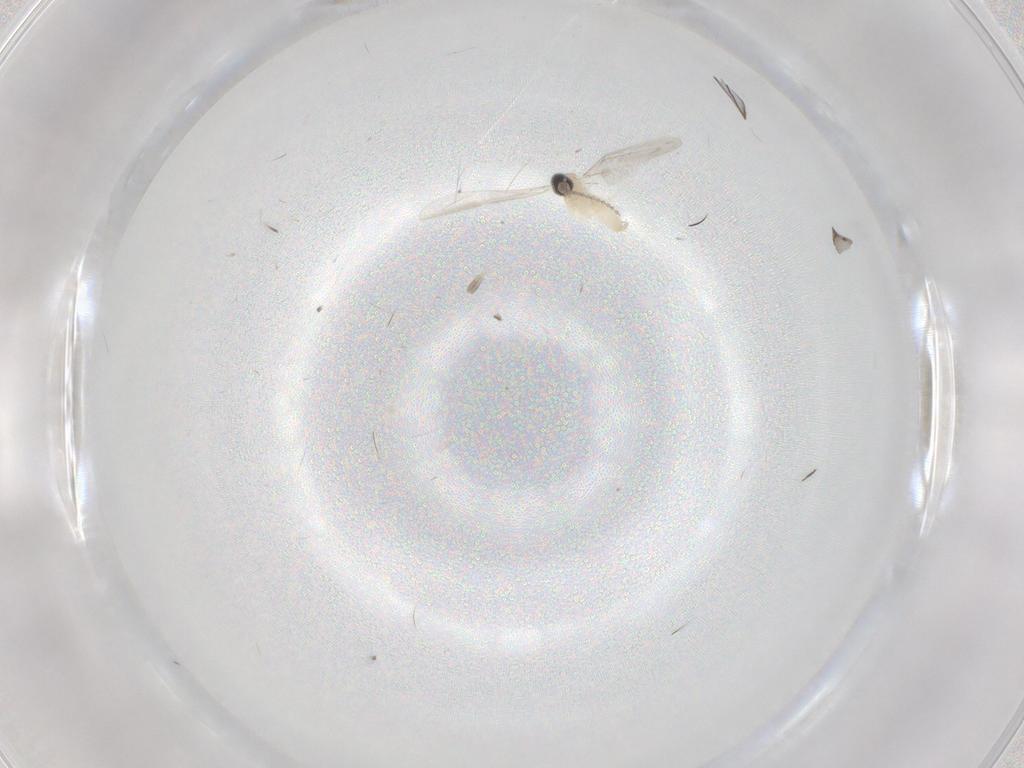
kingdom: Animalia
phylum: Arthropoda
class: Insecta
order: Diptera
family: Cecidomyiidae
